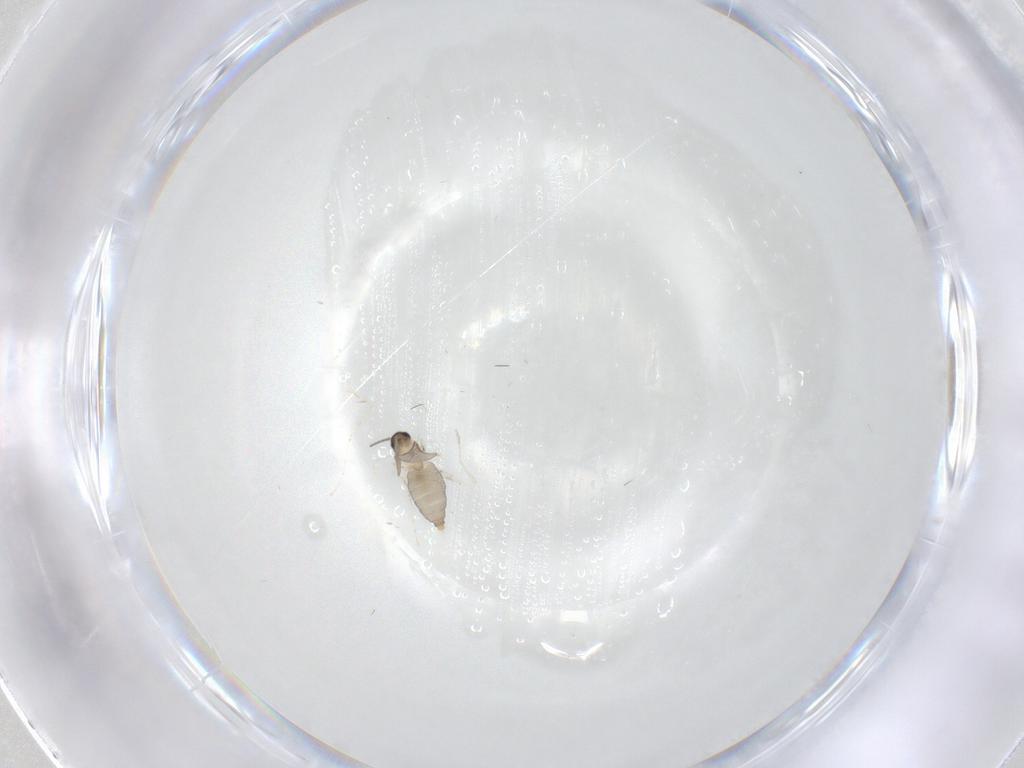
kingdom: Animalia
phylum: Arthropoda
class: Insecta
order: Diptera
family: Cecidomyiidae
